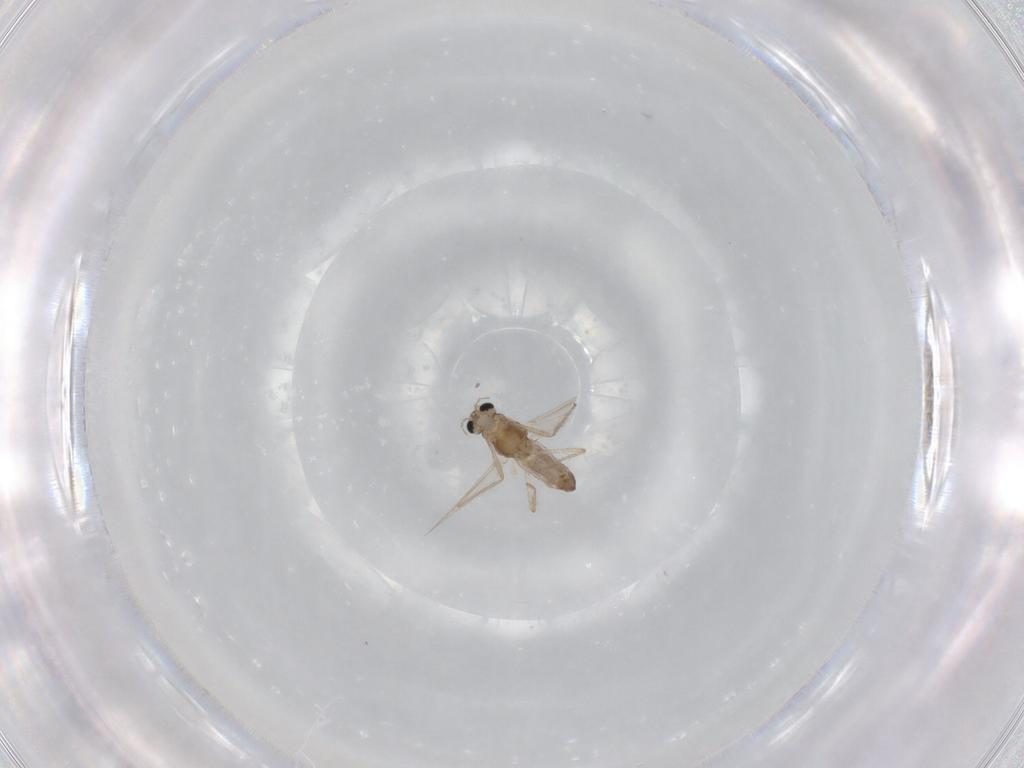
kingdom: Animalia
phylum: Arthropoda
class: Insecta
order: Diptera
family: Chironomidae
